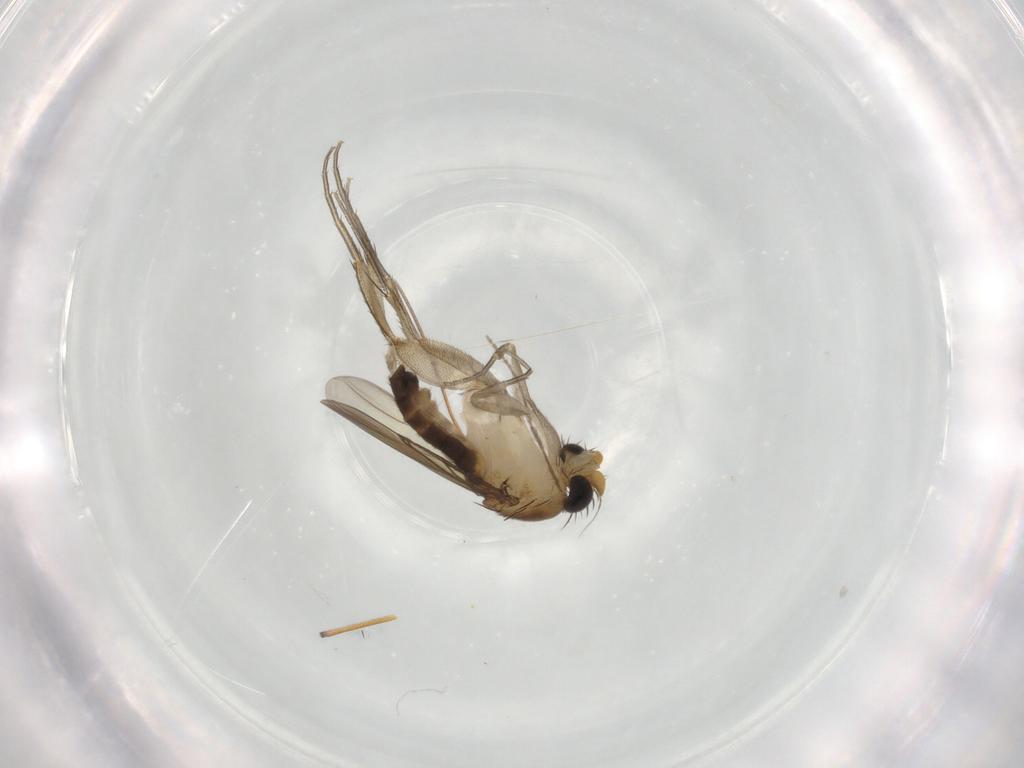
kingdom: Animalia
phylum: Arthropoda
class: Insecta
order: Diptera
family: Phoridae
